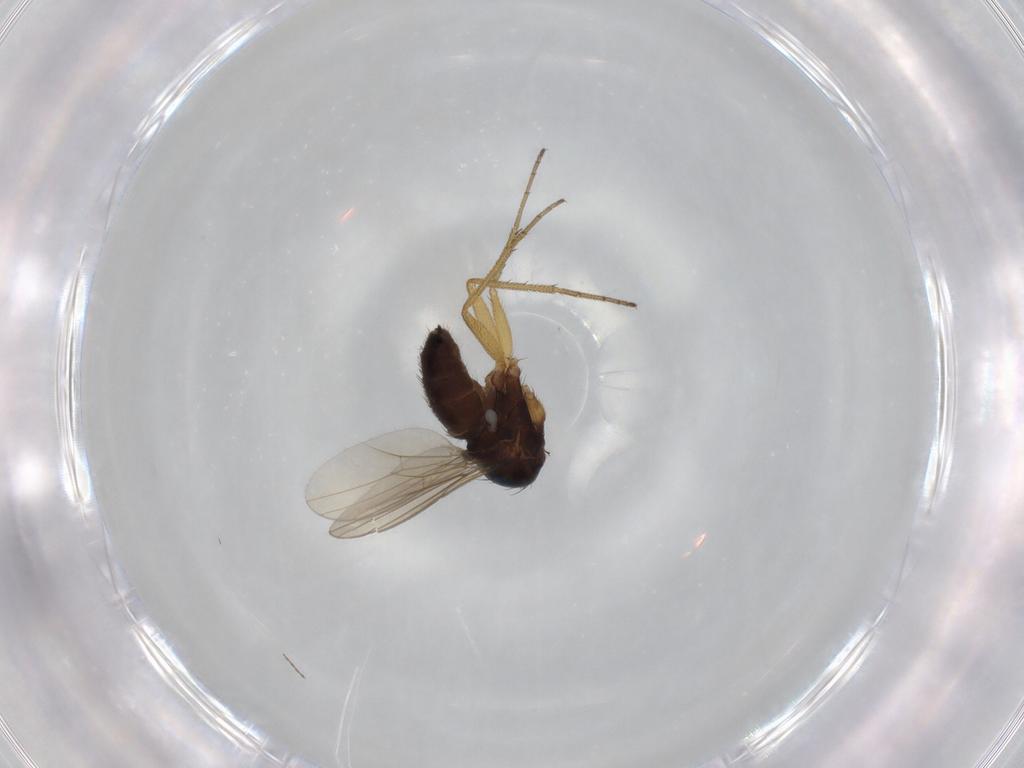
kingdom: Animalia
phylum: Arthropoda
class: Insecta
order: Diptera
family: Dolichopodidae
